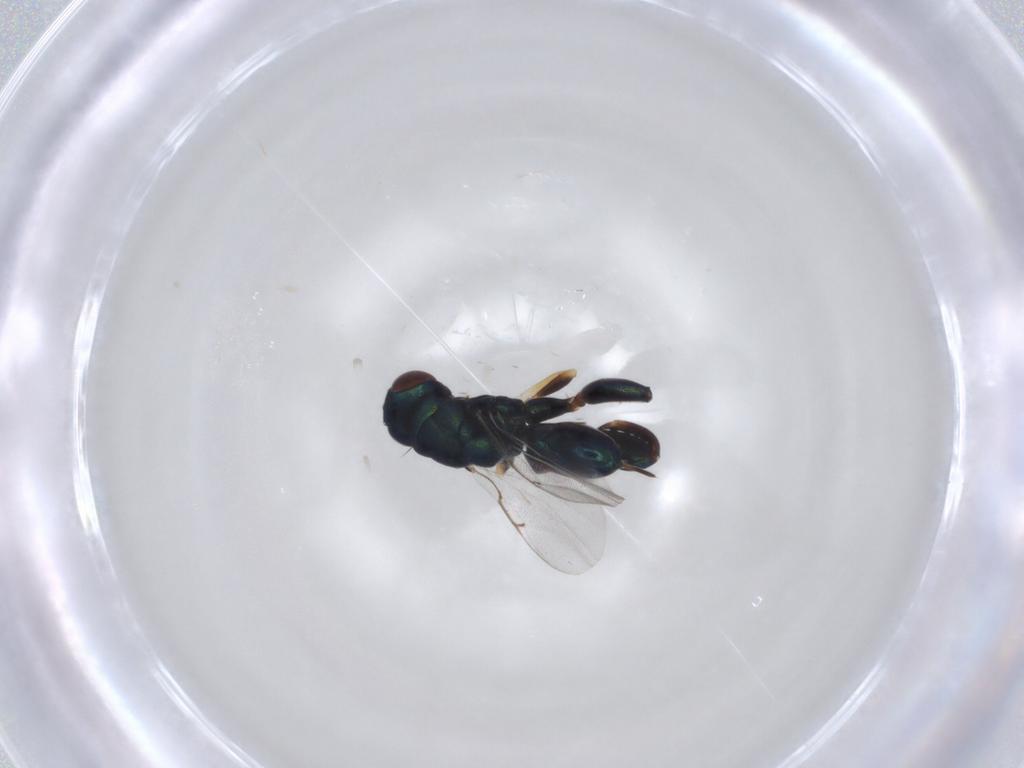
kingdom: Animalia
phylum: Arthropoda
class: Insecta
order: Hymenoptera
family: Torymidae
